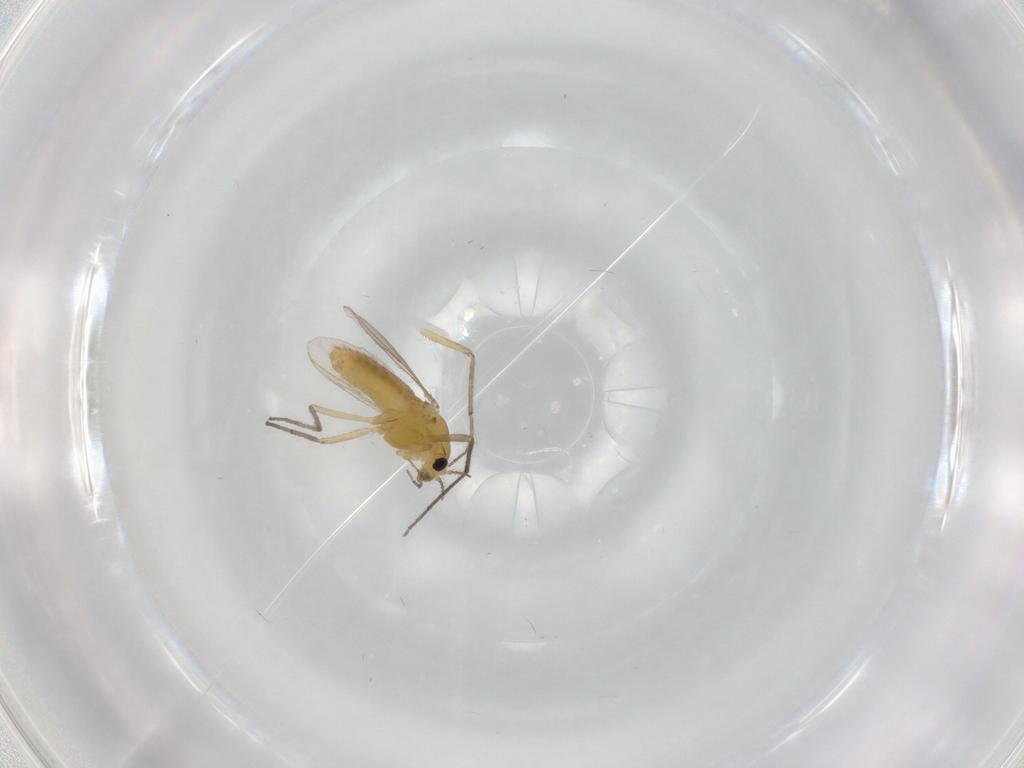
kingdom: Animalia
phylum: Arthropoda
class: Insecta
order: Diptera
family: Chironomidae
